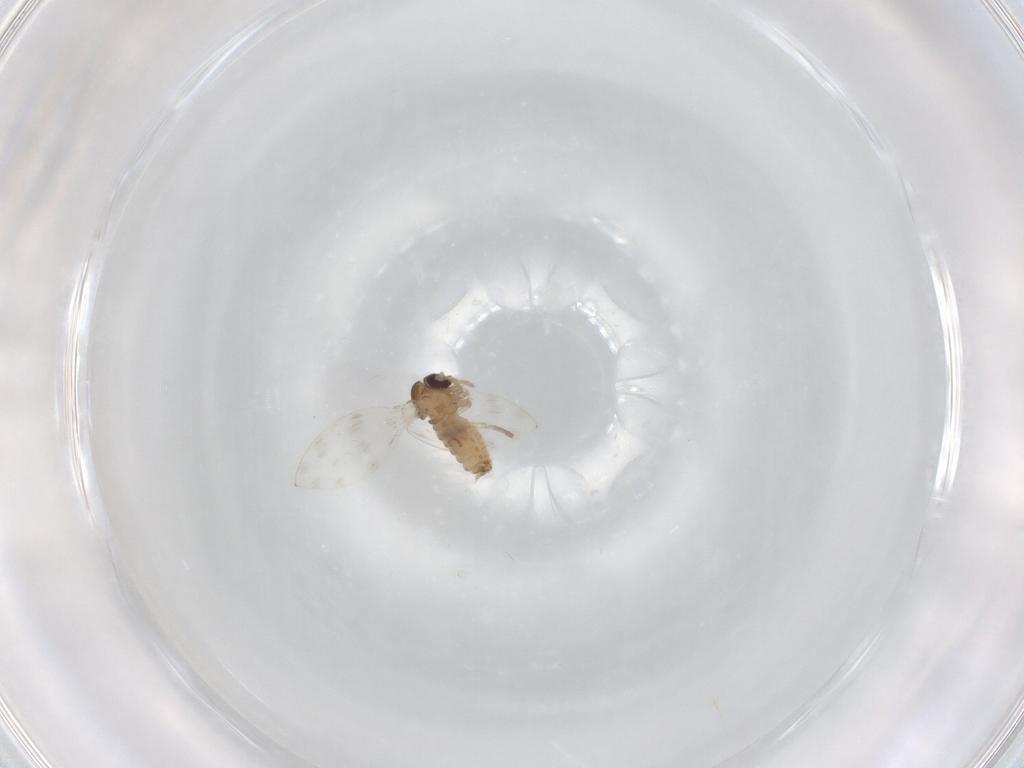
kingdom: Animalia
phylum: Arthropoda
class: Insecta
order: Diptera
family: Psychodidae
